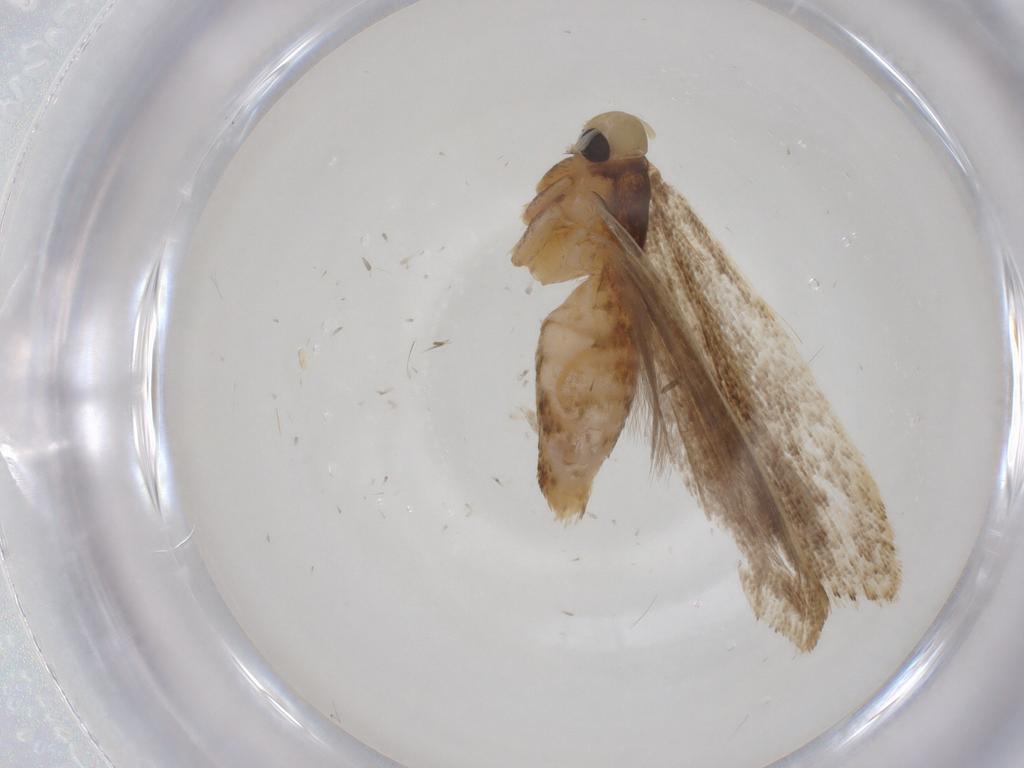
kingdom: Animalia
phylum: Arthropoda
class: Insecta
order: Lepidoptera
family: Gelechiidae
